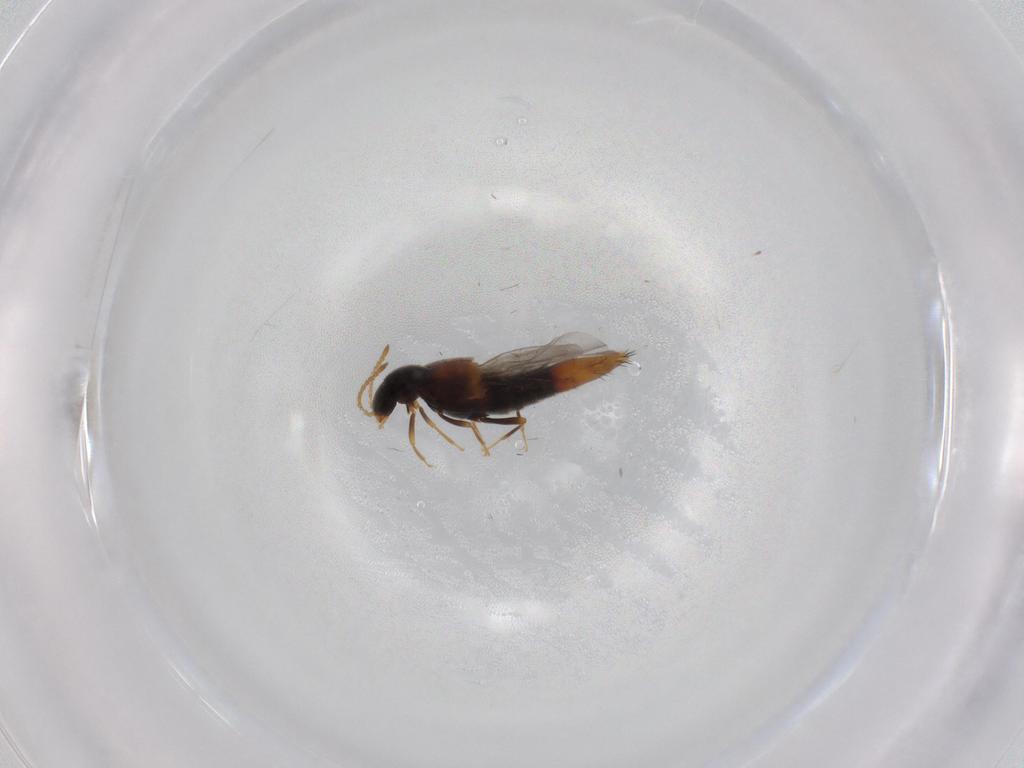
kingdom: Animalia
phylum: Arthropoda
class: Insecta
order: Coleoptera
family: Staphylinidae
